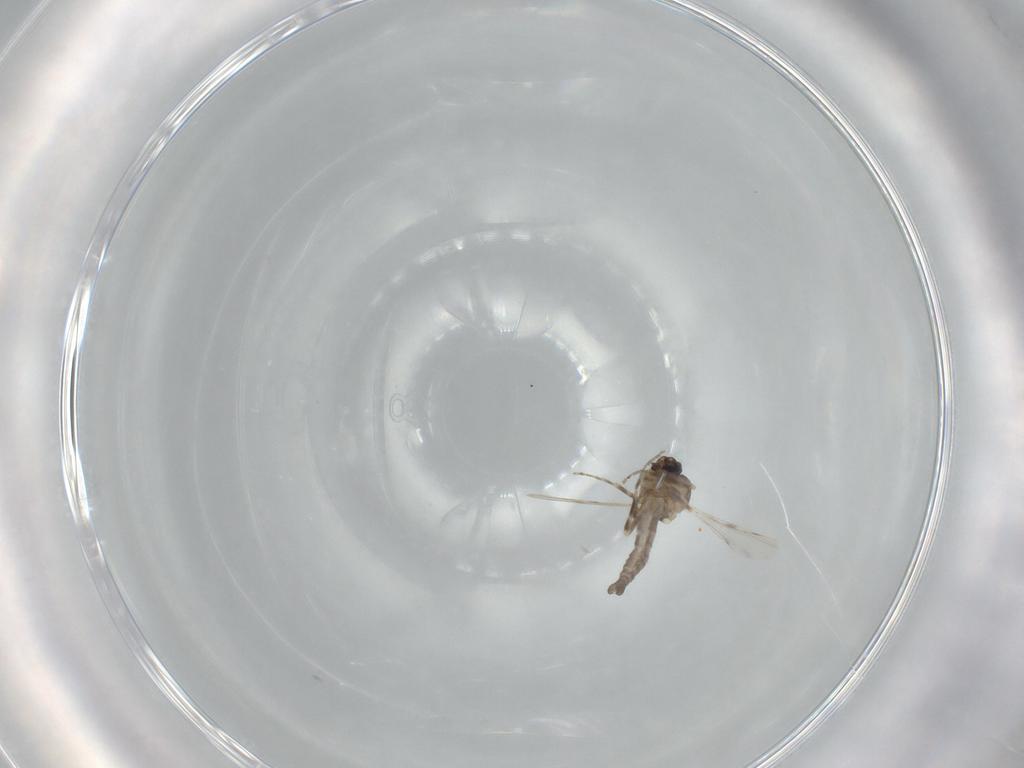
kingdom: Animalia
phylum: Arthropoda
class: Insecta
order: Diptera
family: Ceratopogonidae
